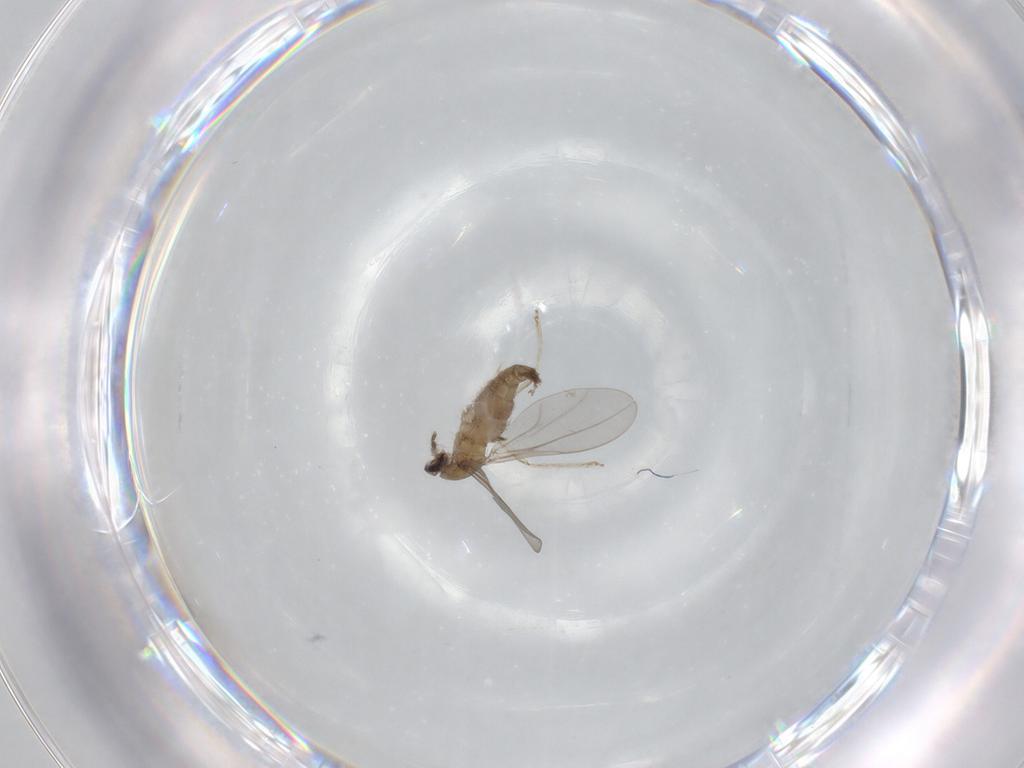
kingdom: Animalia
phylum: Arthropoda
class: Insecta
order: Diptera
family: Cecidomyiidae
